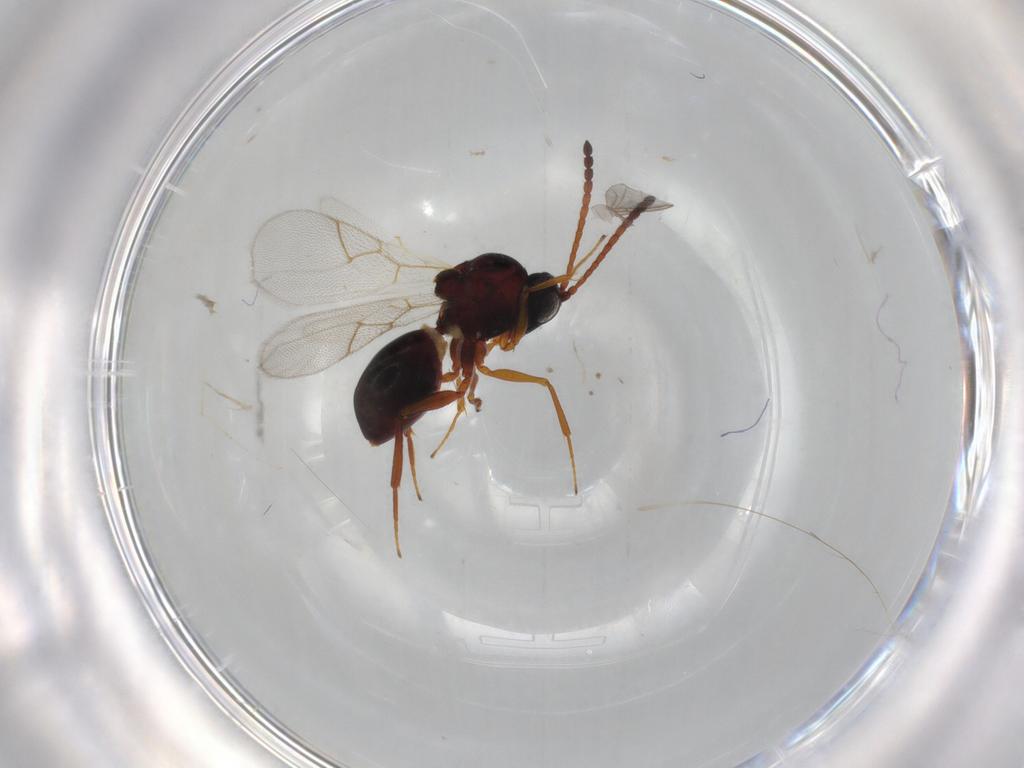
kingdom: Animalia
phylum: Arthropoda
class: Insecta
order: Hymenoptera
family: Figitidae
